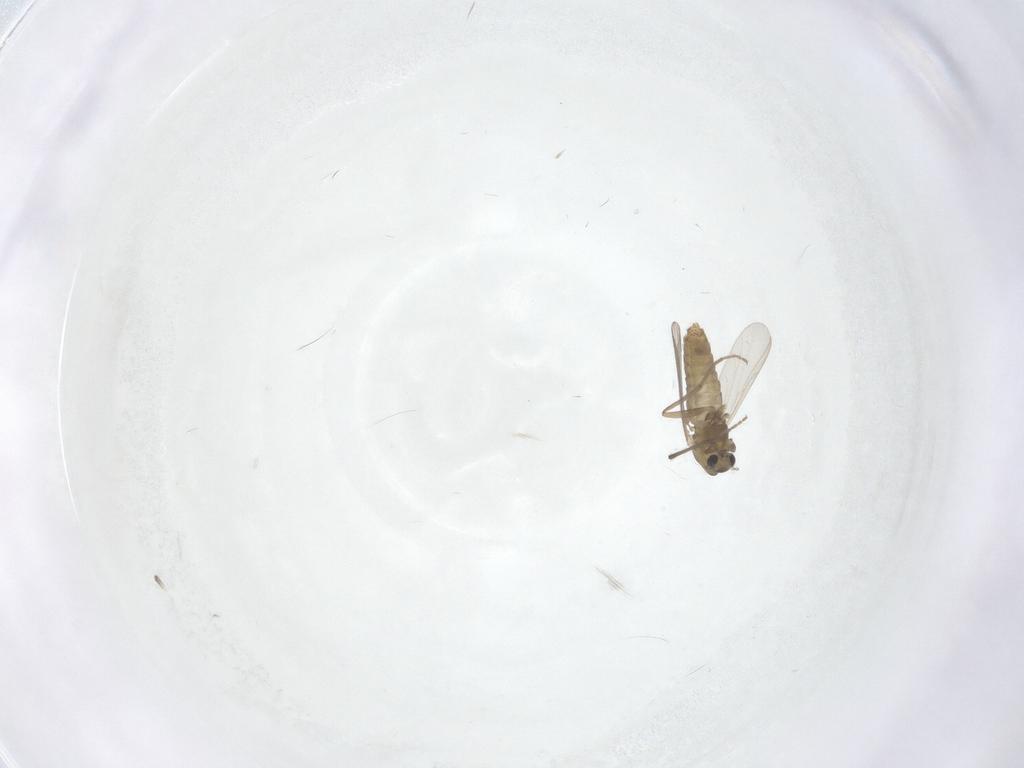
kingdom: Animalia
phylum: Arthropoda
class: Insecta
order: Diptera
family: Chironomidae
